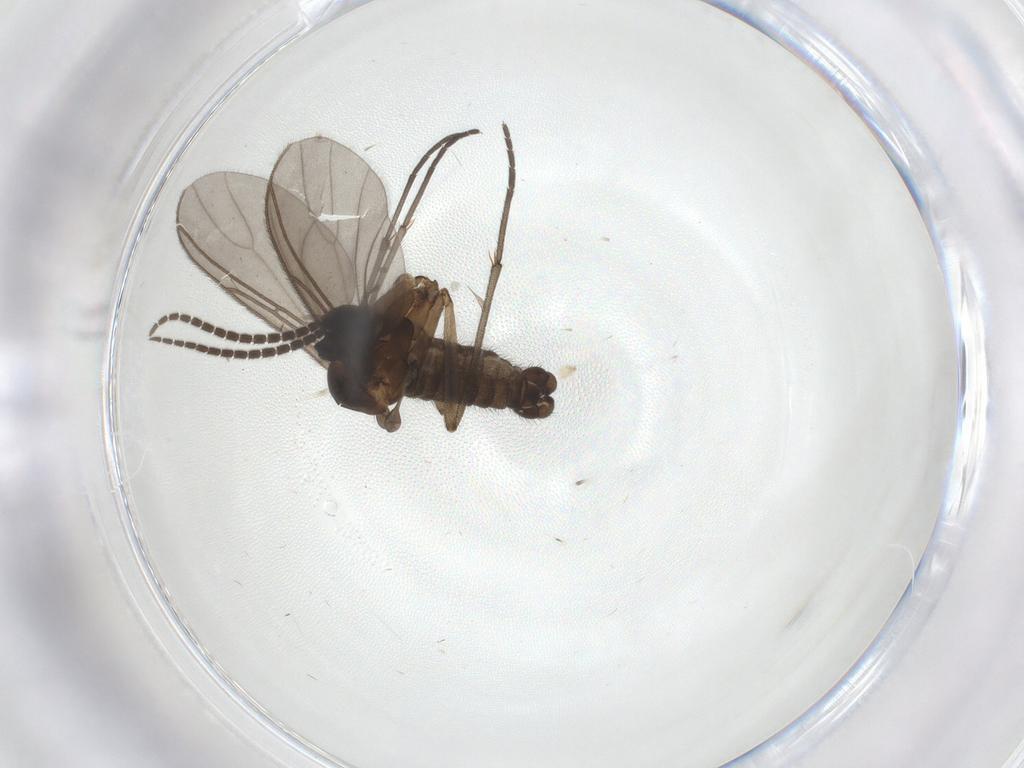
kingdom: Animalia
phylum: Arthropoda
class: Insecta
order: Diptera
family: Sciaridae
